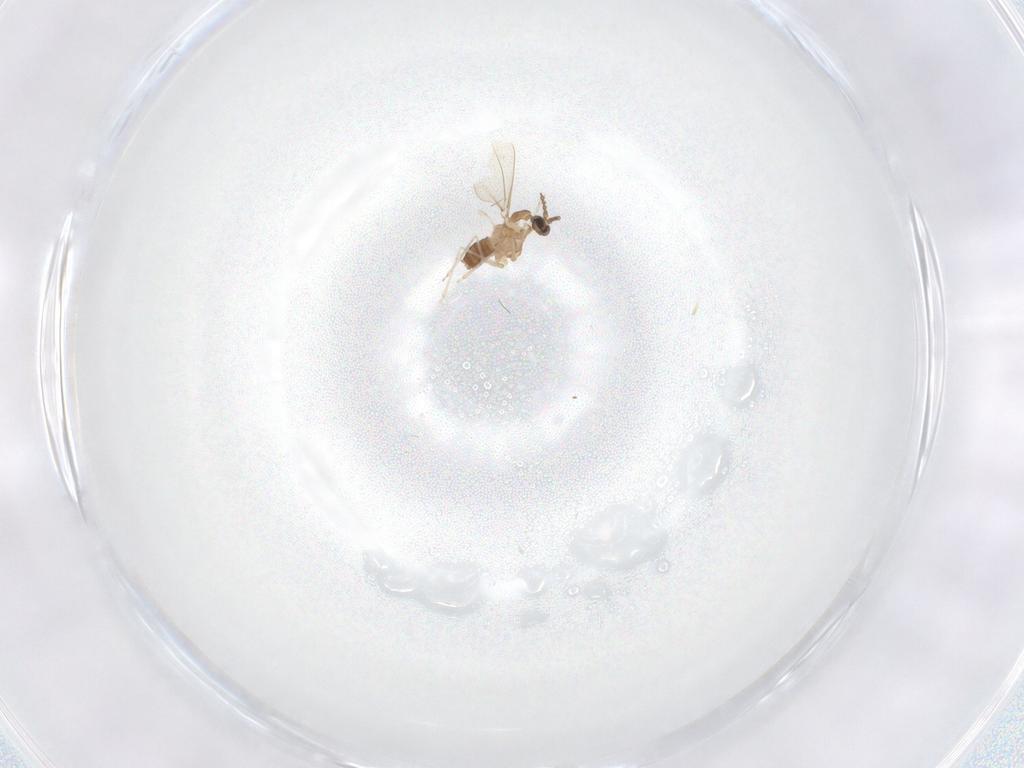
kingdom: Animalia
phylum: Arthropoda
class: Insecta
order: Diptera
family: Cecidomyiidae
